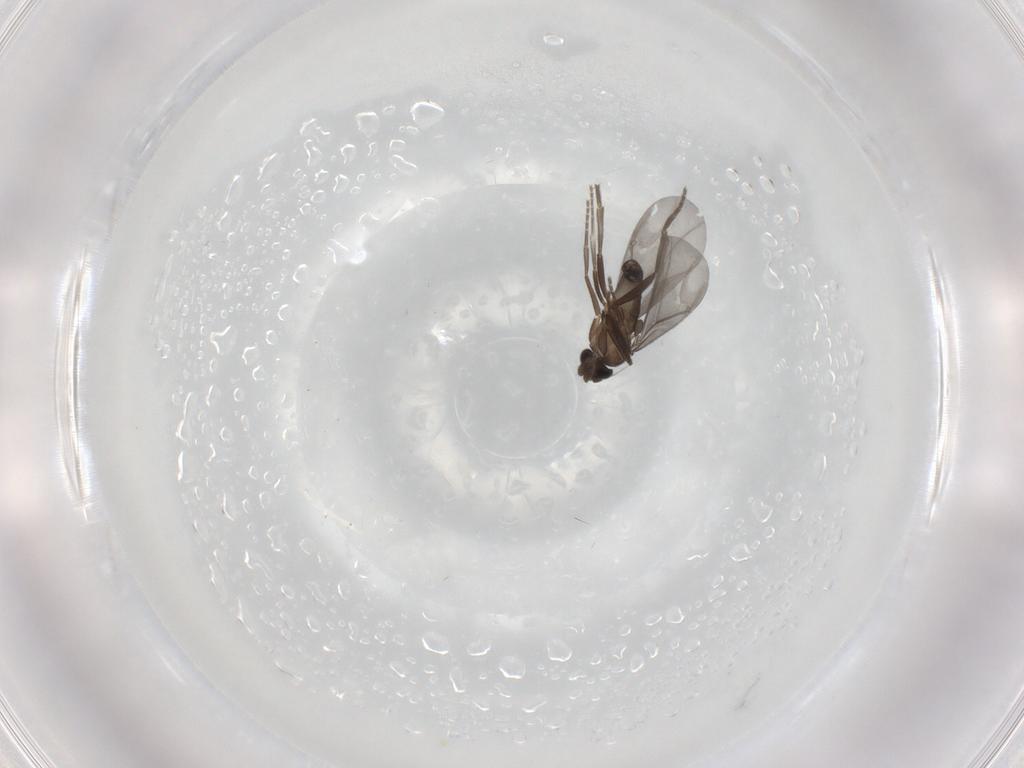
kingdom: Animalia
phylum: Arthropoda
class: Insecta
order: Diptera
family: Phoridae
